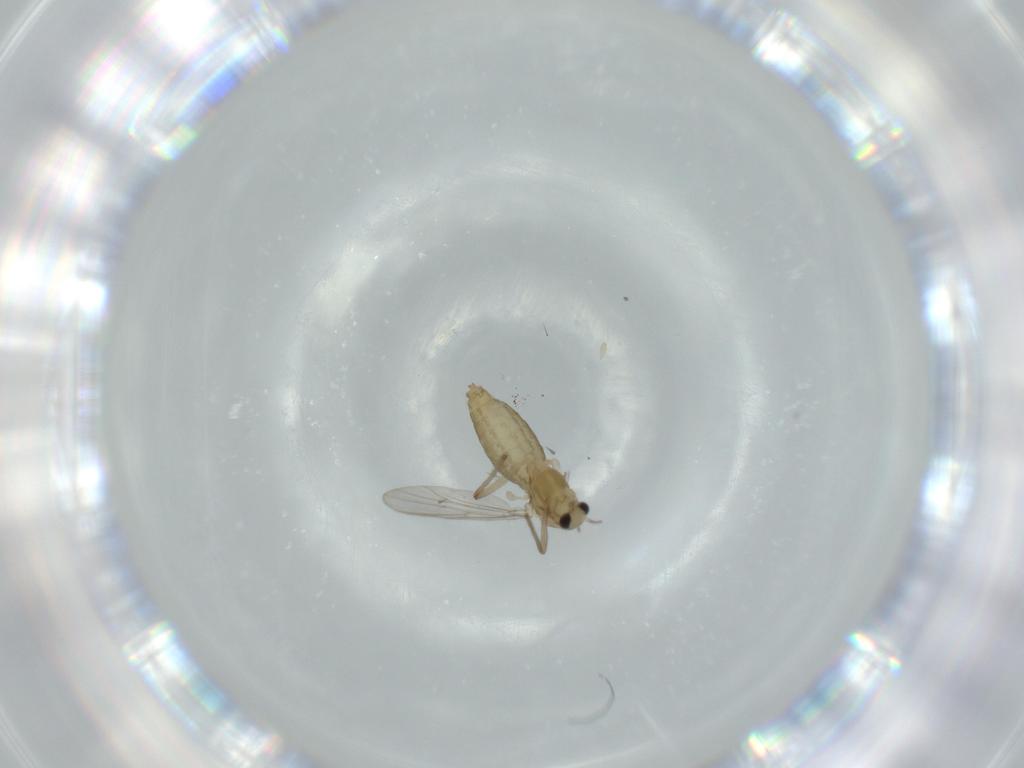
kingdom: Animalia
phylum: Arthropoda
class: Insecta
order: Diptera
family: Chironomidae
